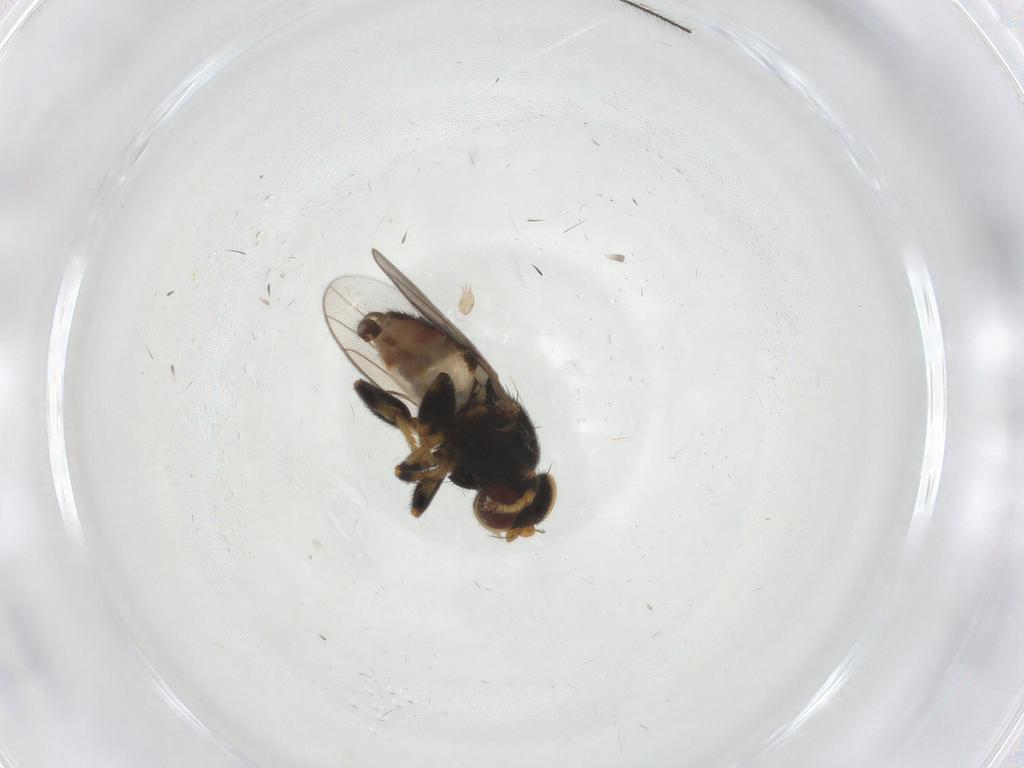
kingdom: Animalia
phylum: Arthropoda
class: Insecta
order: Diptera
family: Chloropidae
